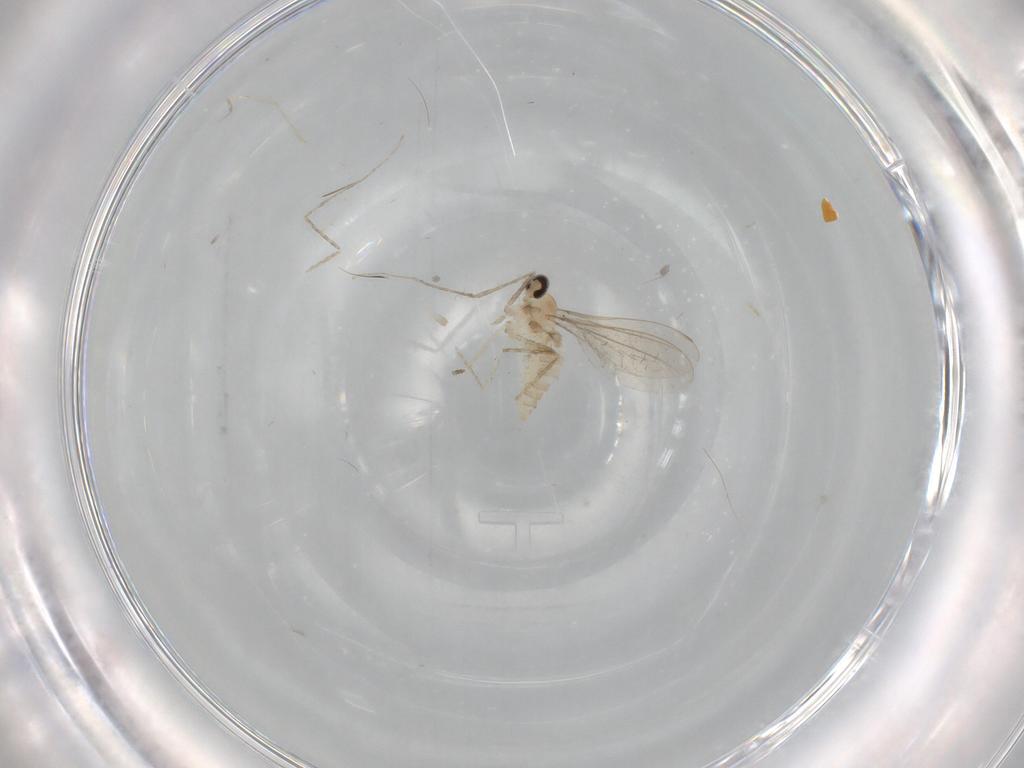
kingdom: Animalia
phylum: Arthropoda
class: Insecta
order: Diptera
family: Cecidomyiidae
